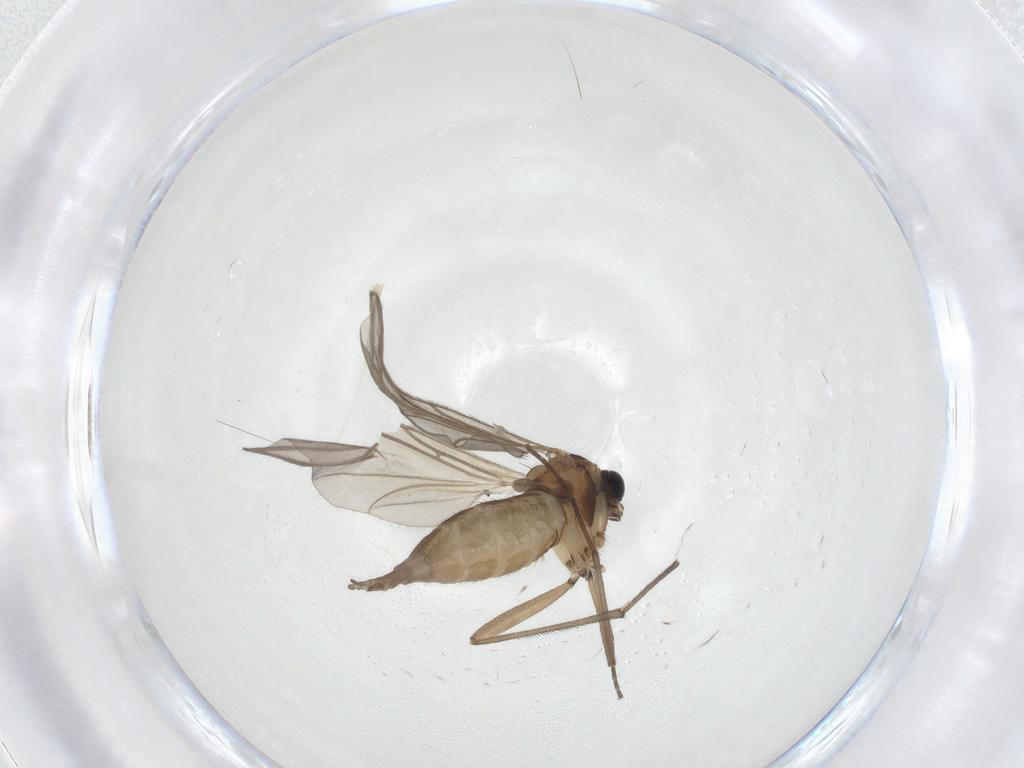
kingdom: Animalia
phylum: Arthropoda
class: Insecta
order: Diptera
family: Sciaridae
